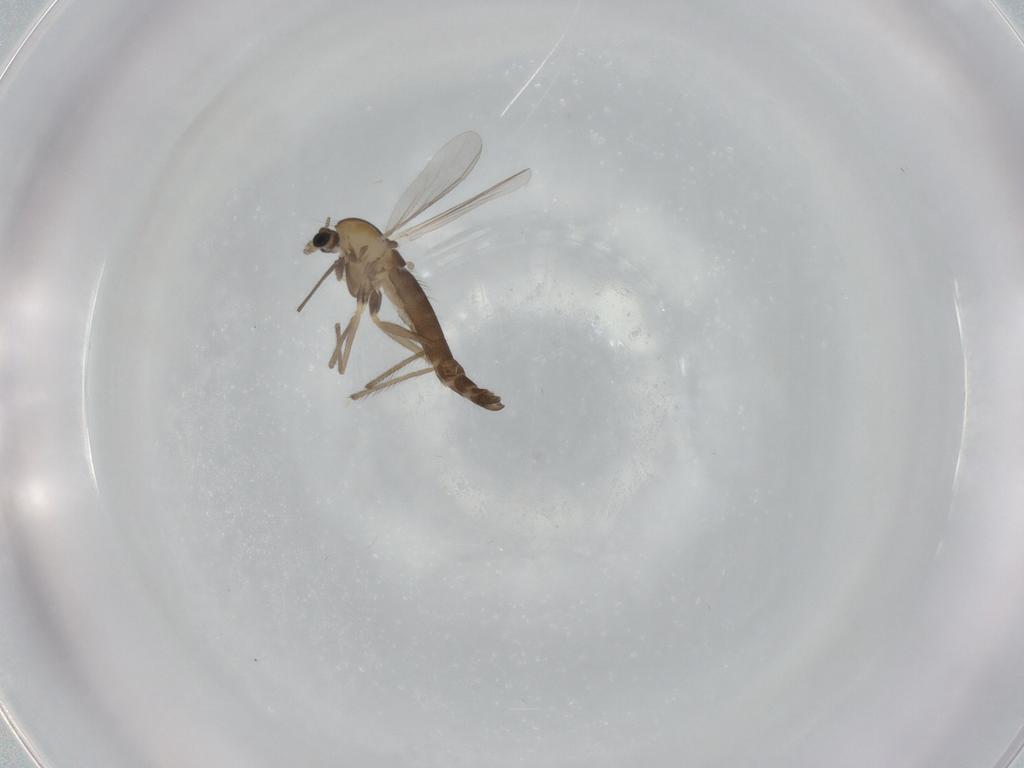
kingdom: Animalia
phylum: Arthropoda
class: Insecta
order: Diptera
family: Chironomidae
